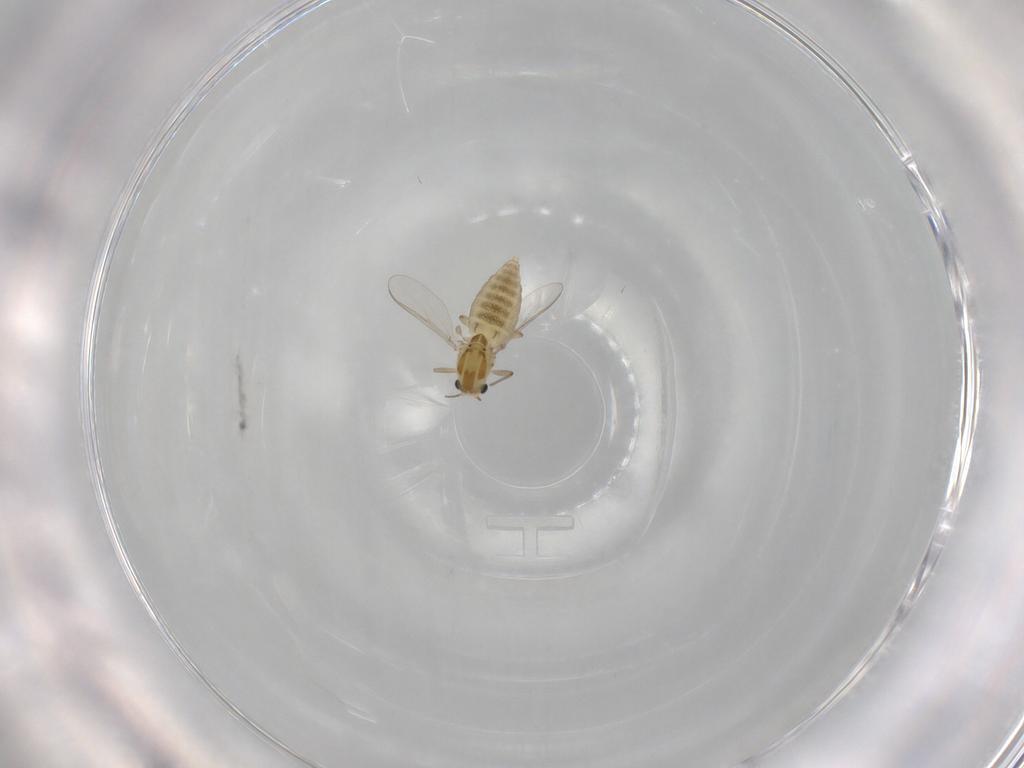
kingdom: Animalia
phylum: Arthropoda
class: Insecta
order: Diptera
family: Chironomidae
